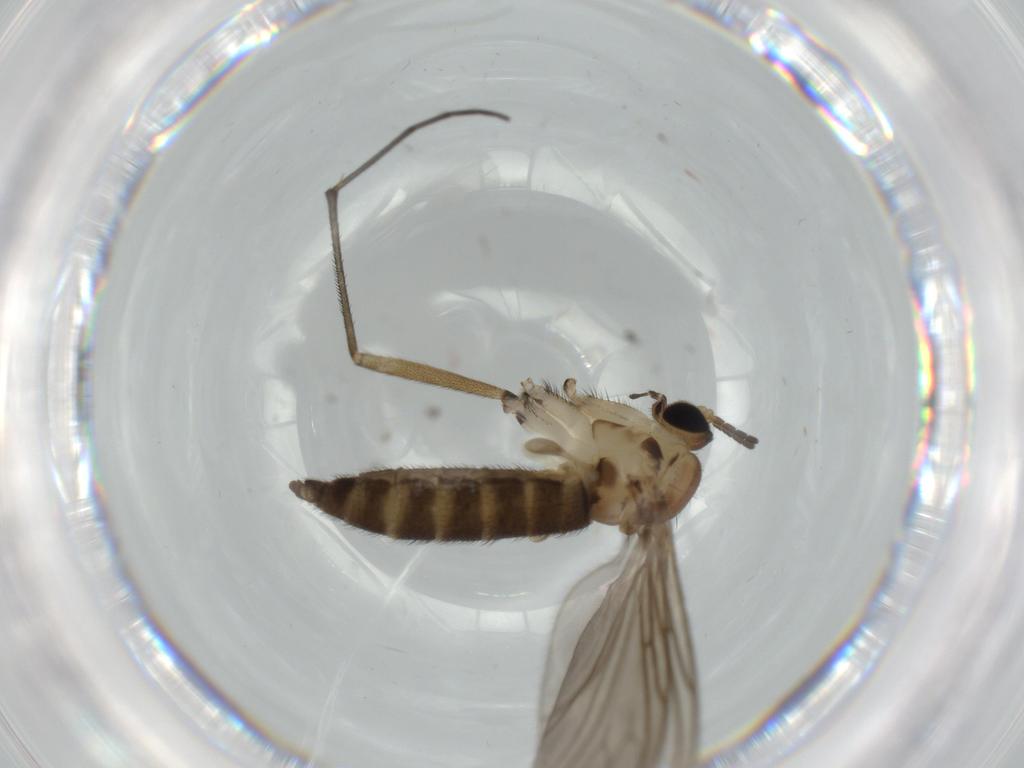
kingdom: Animalia
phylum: Arthropoda
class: Insecta
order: Diptera
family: Sciaridae
